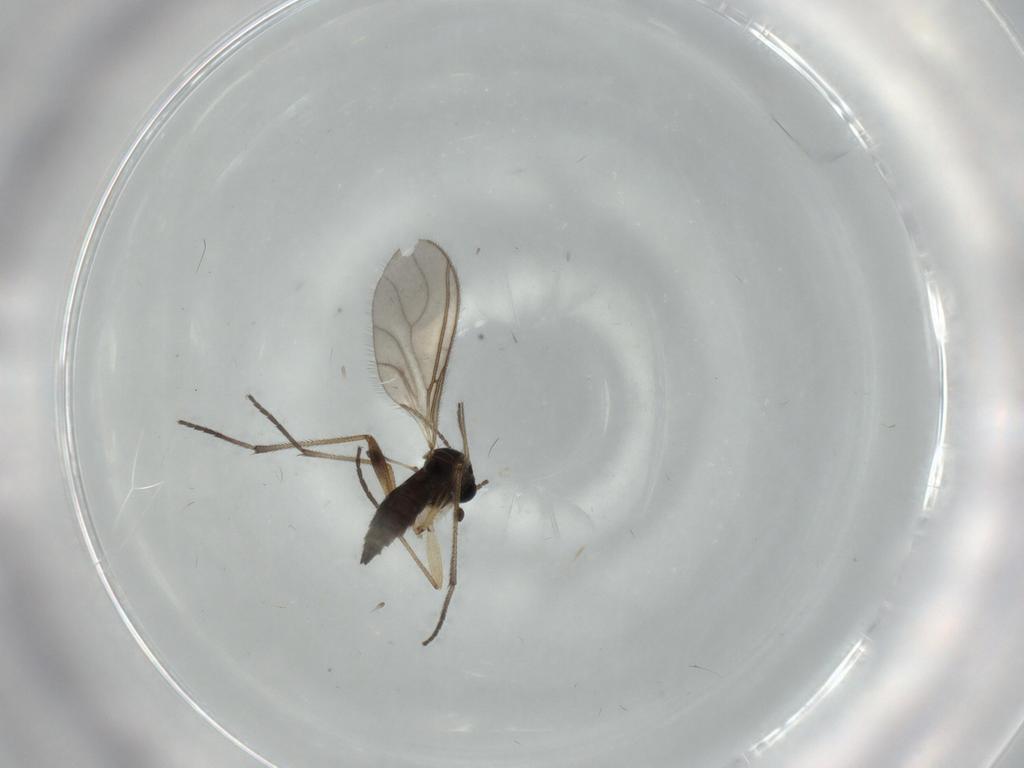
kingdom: Animalia
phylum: Arthropoda
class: Insecta
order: Diptera
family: Sciaridae
